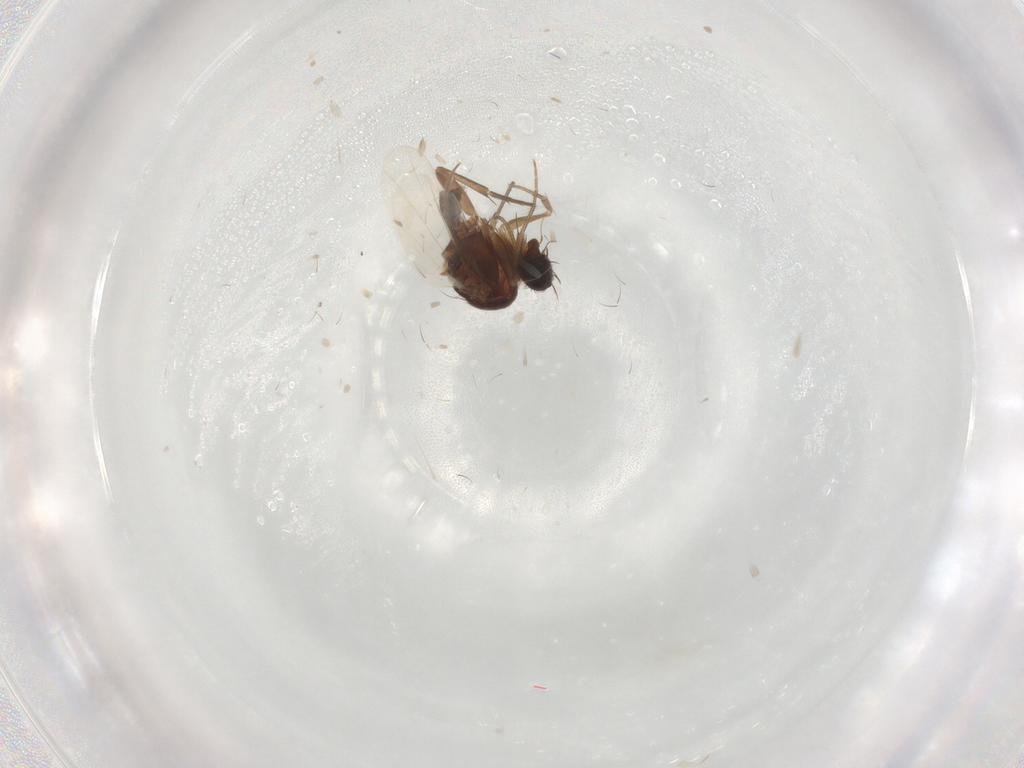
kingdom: Animalia
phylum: Arthropoda
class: Insecta
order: Diptera
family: Phoridae
